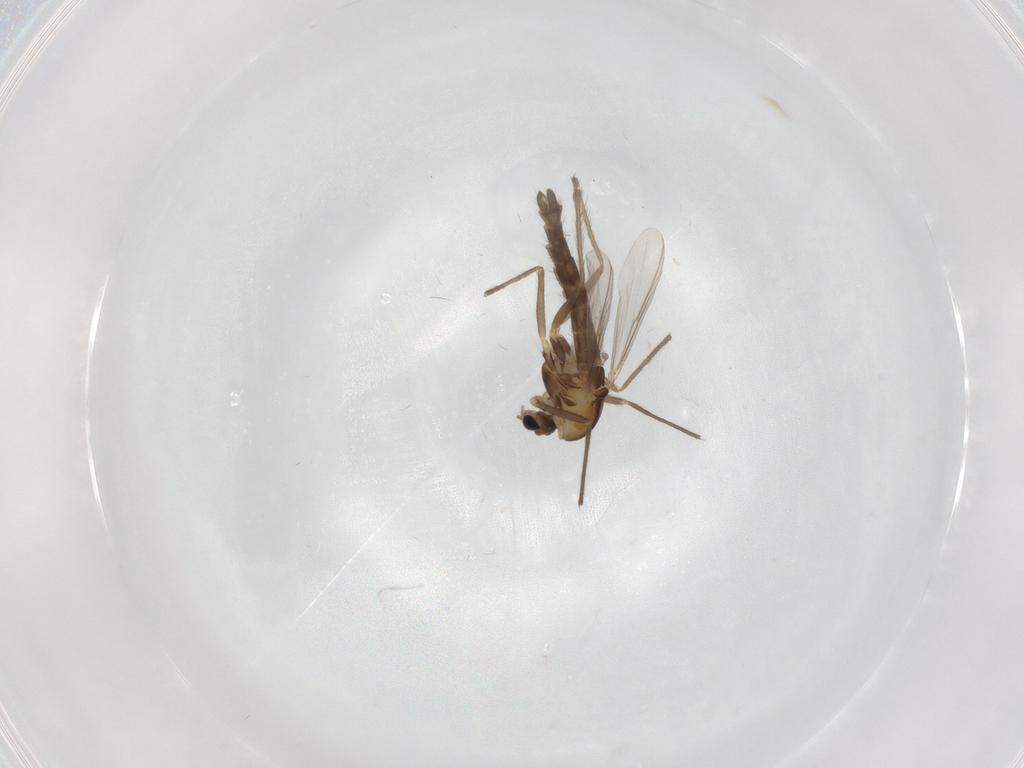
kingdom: Animalia
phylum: Arthropoda
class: Insecta
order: Diptera
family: Chironomidae
